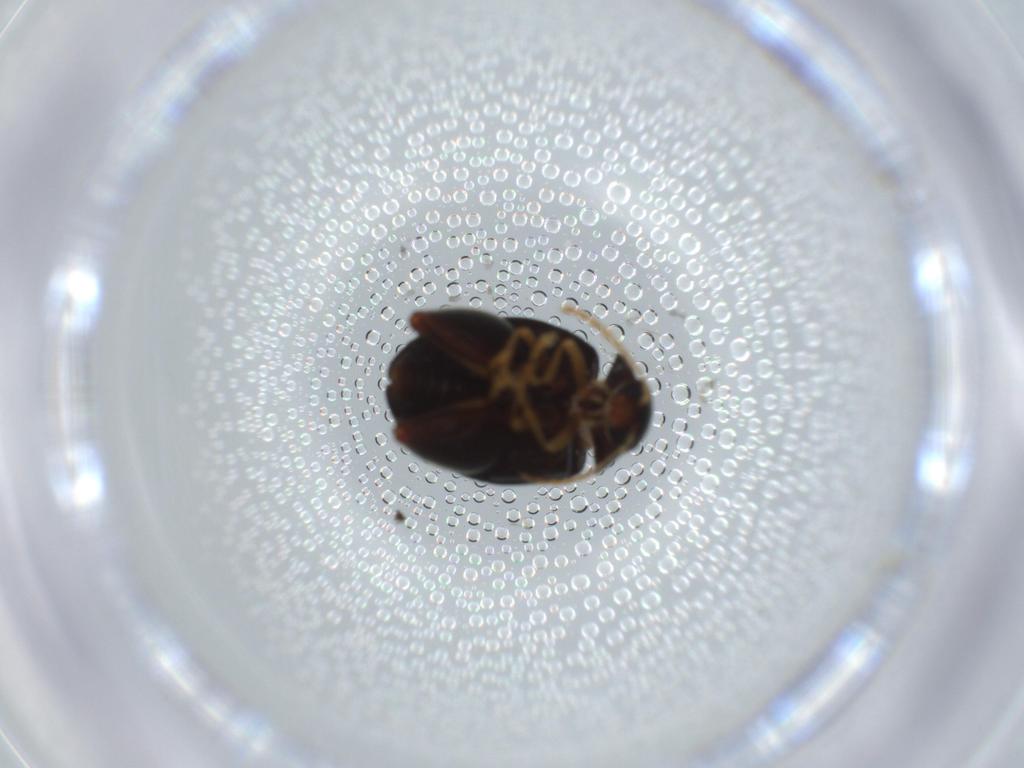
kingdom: Animalia
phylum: Arthropoda
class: Insecta
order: Coleoptera
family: Chrysomelidae
